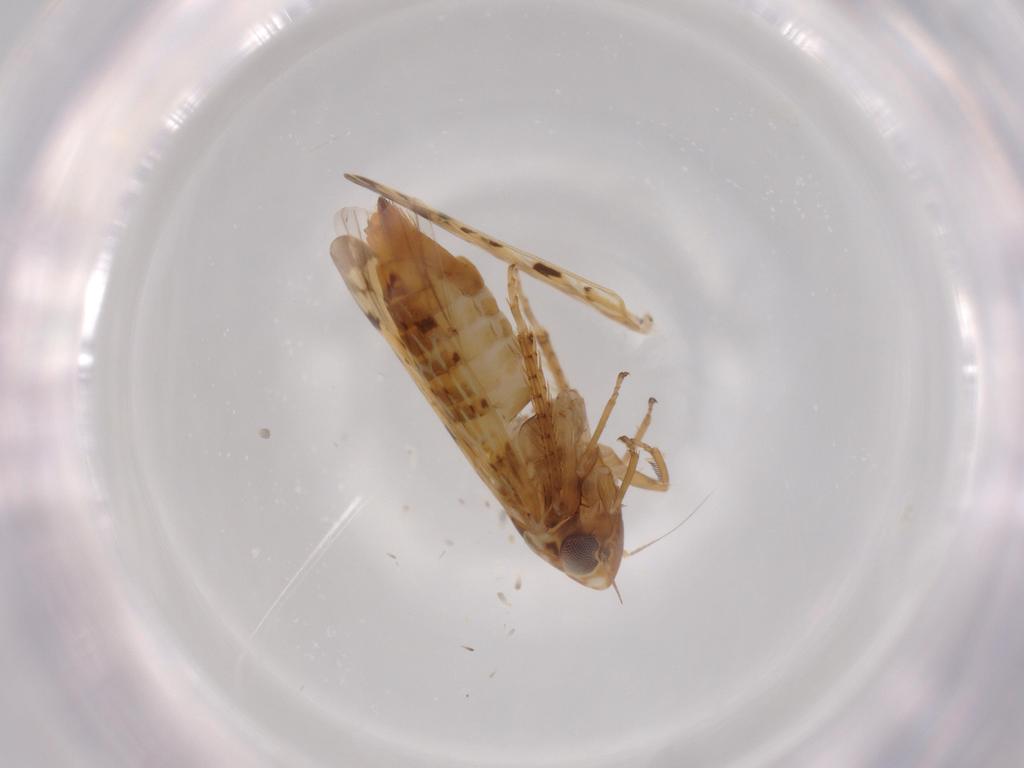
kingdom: Animalia
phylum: Arthropoda
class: Insecta
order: Hemiptera
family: Cicadellidae
